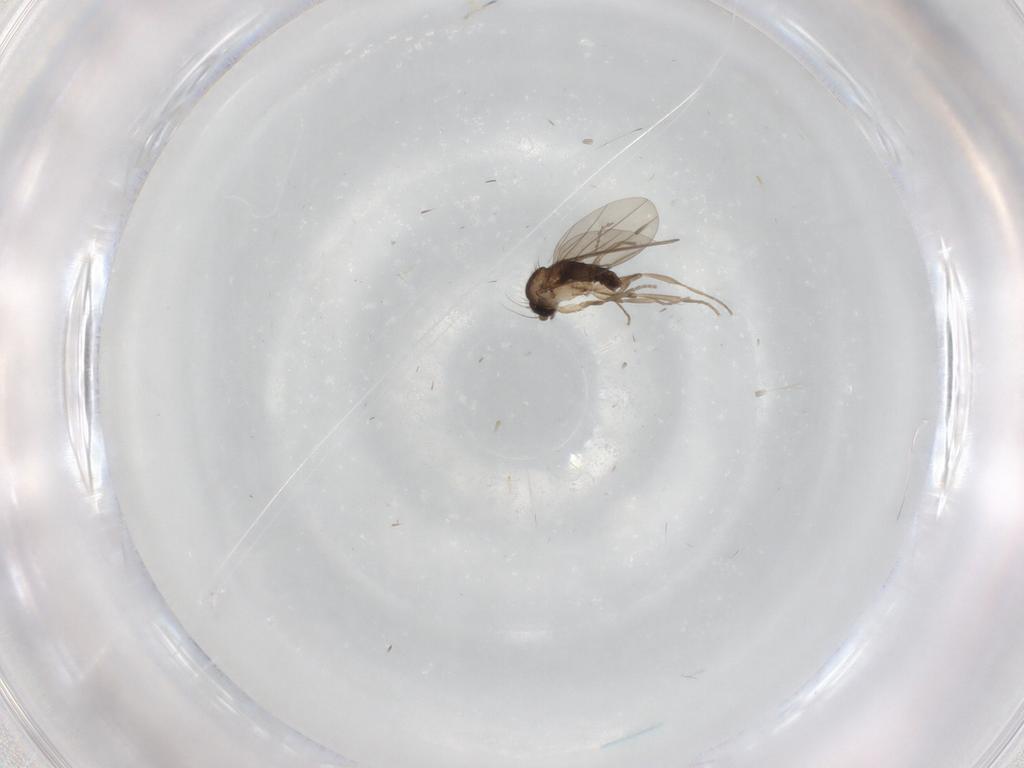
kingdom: Animalia
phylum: Arthropoda
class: Insecta
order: Diptera
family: Phoridae
